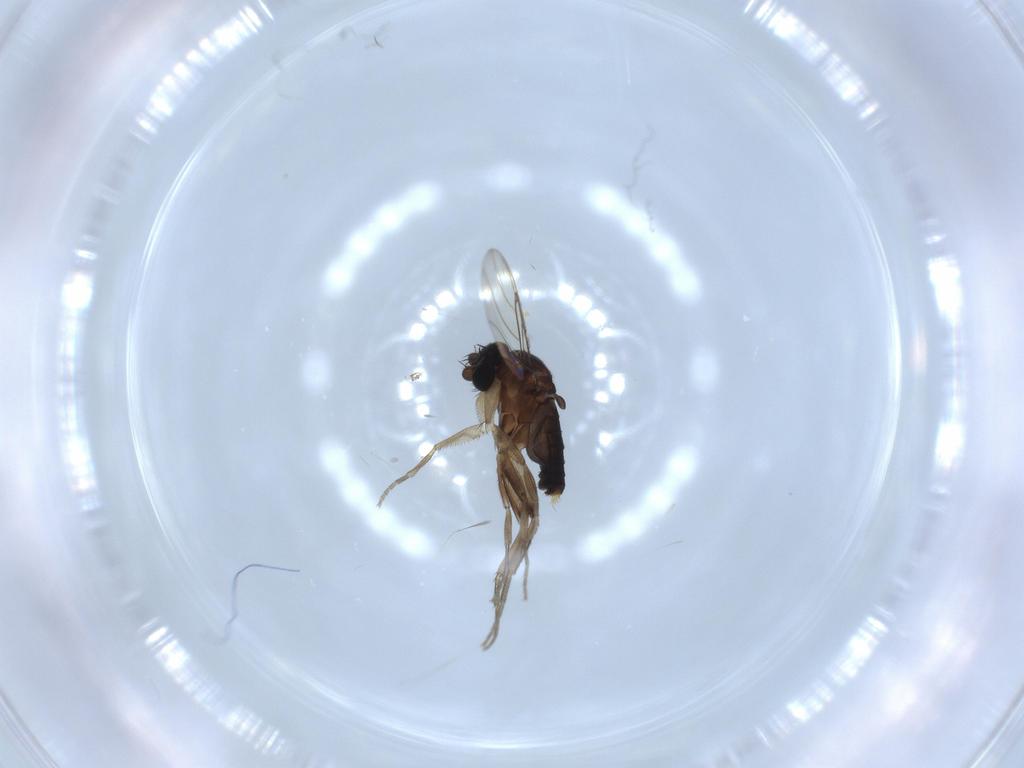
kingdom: Animalia
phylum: Arthropoda
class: Insecta
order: Diptera
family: Phoridae
